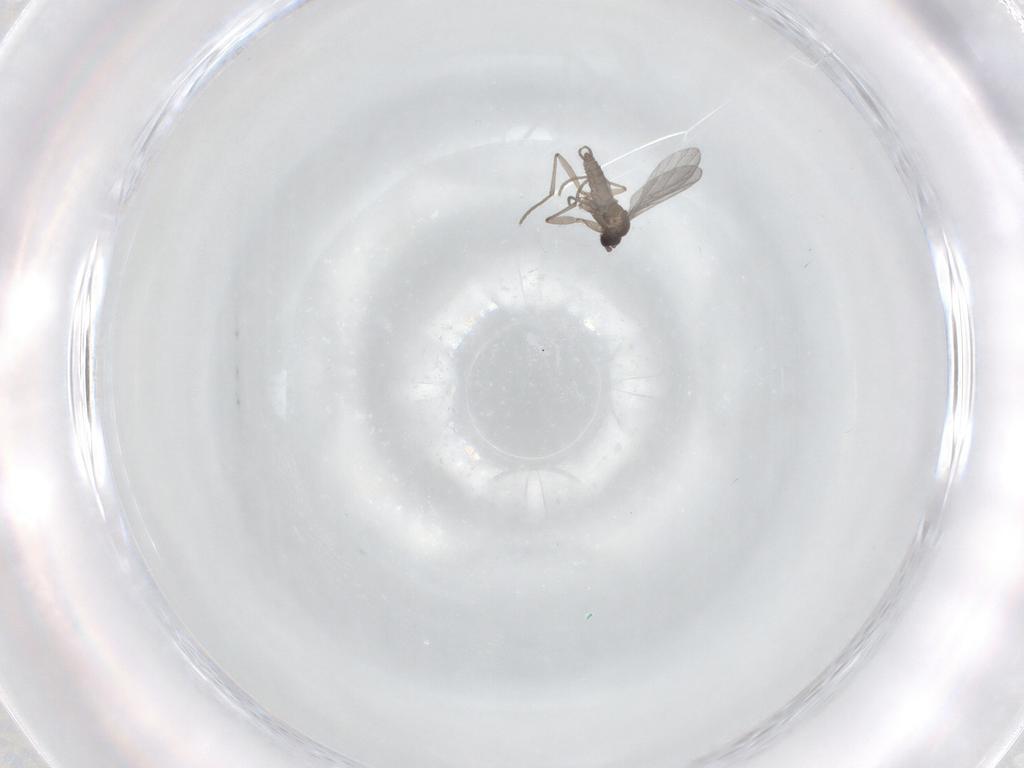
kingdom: Animalia
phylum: Arthropoda
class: Insecta
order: Diptera
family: Sciaridae
